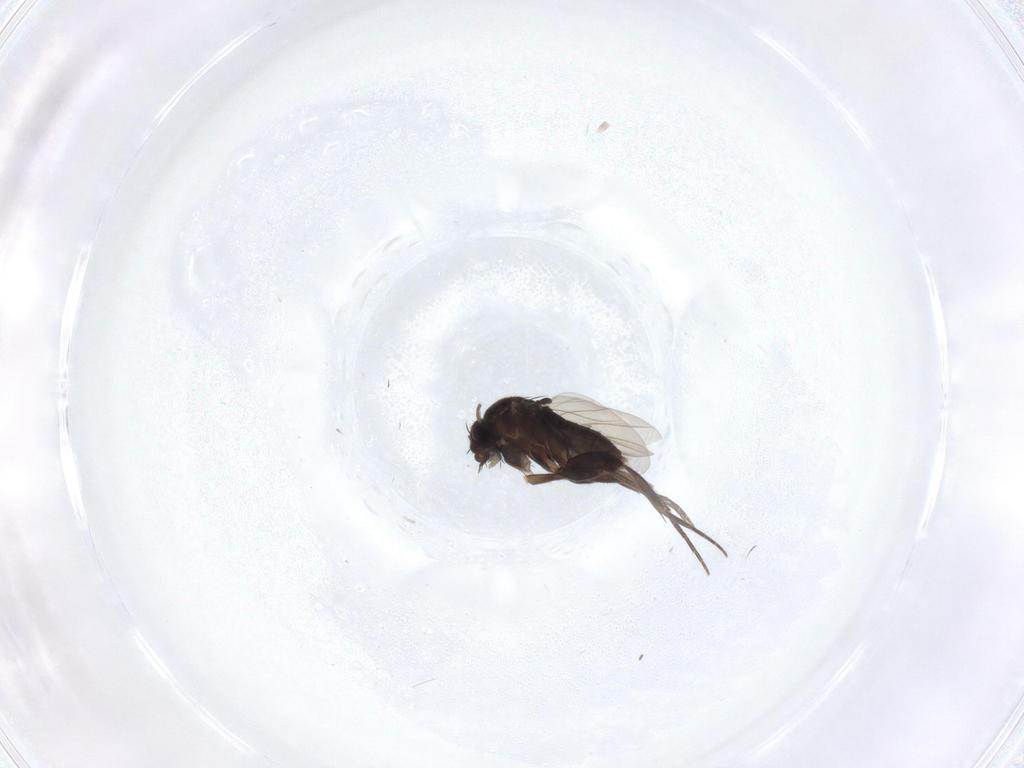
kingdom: Animalia
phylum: Arthropoda
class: Insecta
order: Diptera
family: Phoridae
